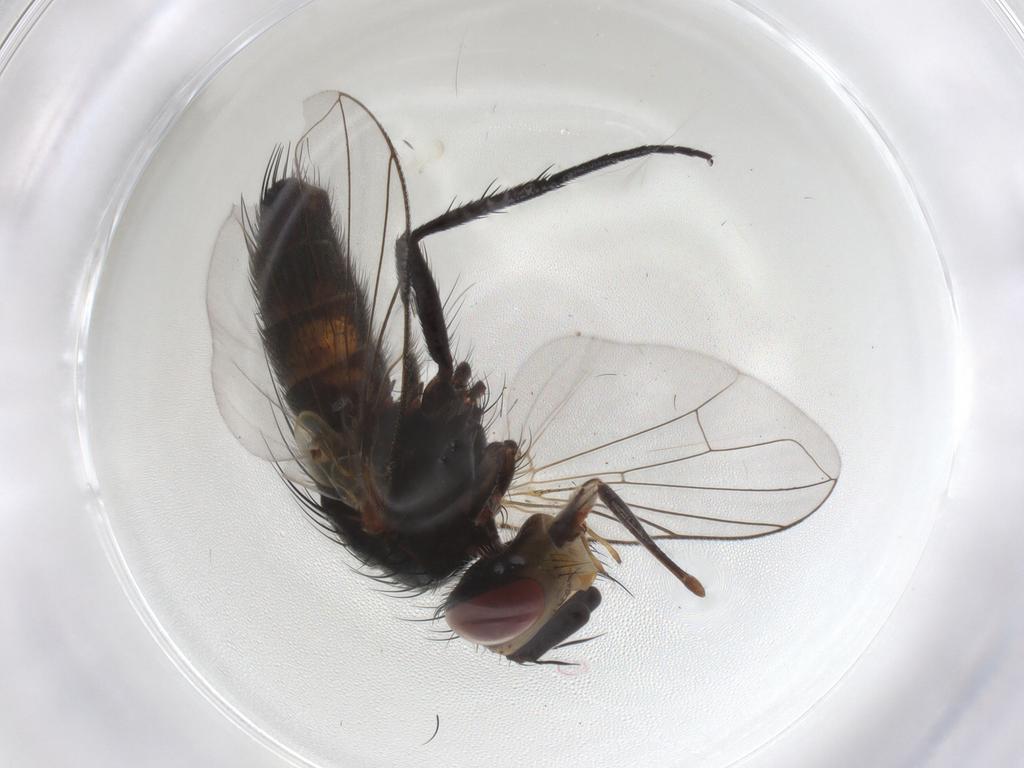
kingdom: Animalia
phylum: Arthropoda
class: Insecta
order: Diptera
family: Tachinidae
